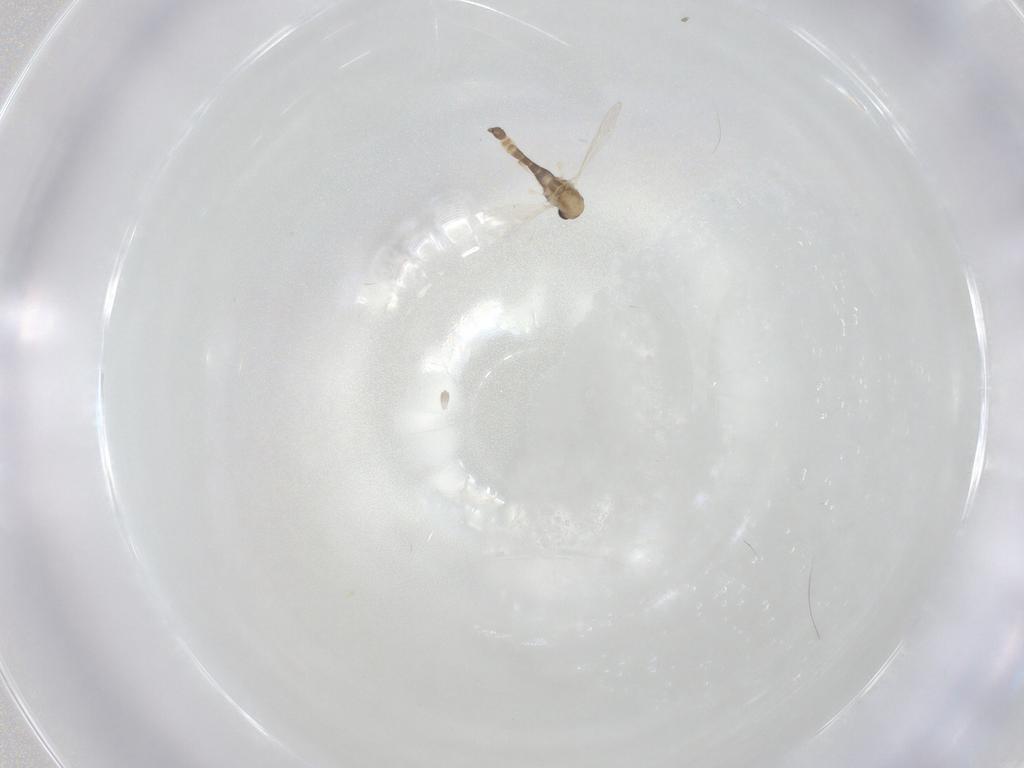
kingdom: Animalia
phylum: Arthropoda
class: Insecta
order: Diptera
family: Chironomidae
